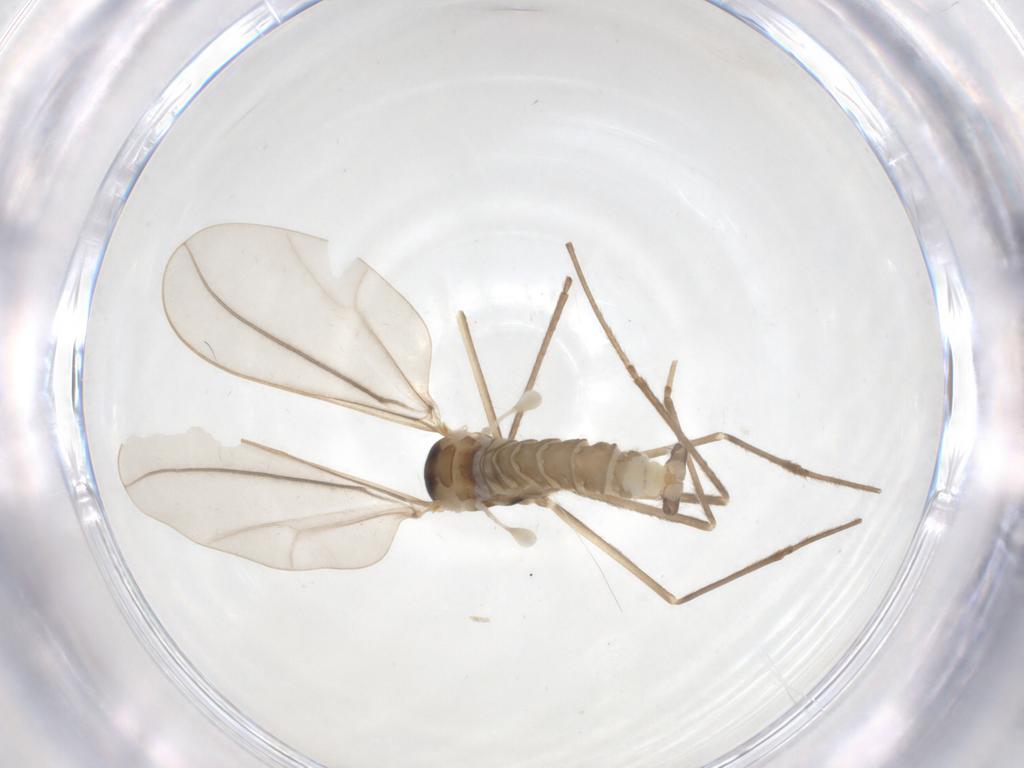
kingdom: Animalia
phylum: Arthropoda
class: Insecta
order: Diptera
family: Cecidomyiidae
